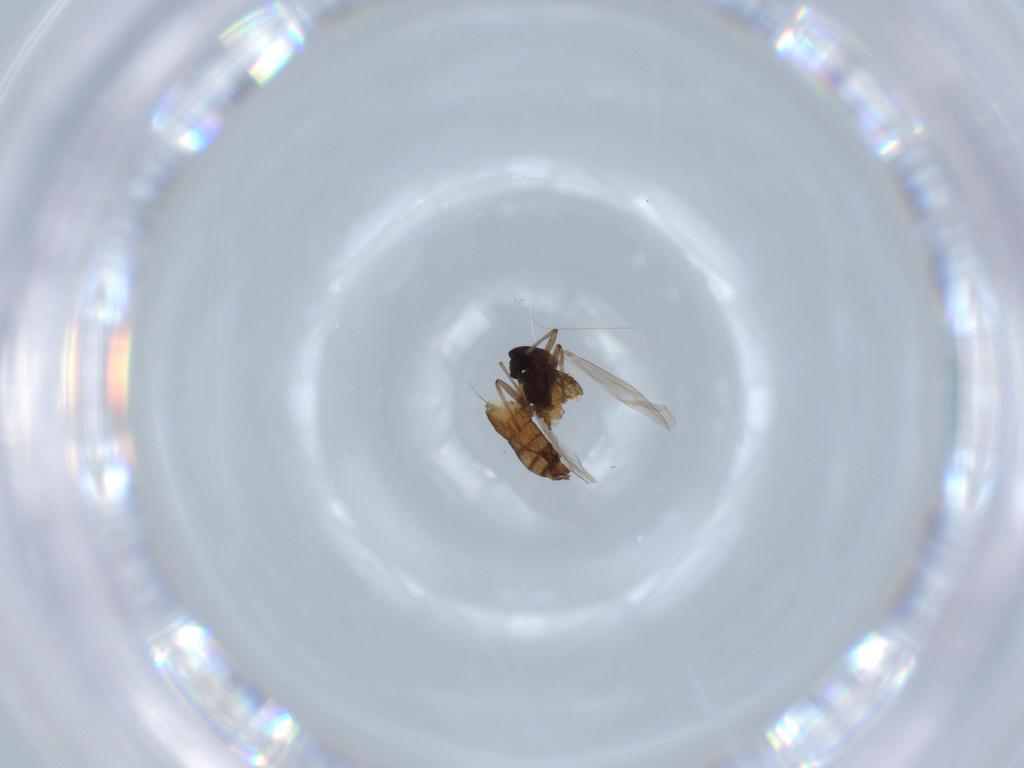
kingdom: Animalia
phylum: Arthropoda
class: Insecta
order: Diptera
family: Chironomidae
